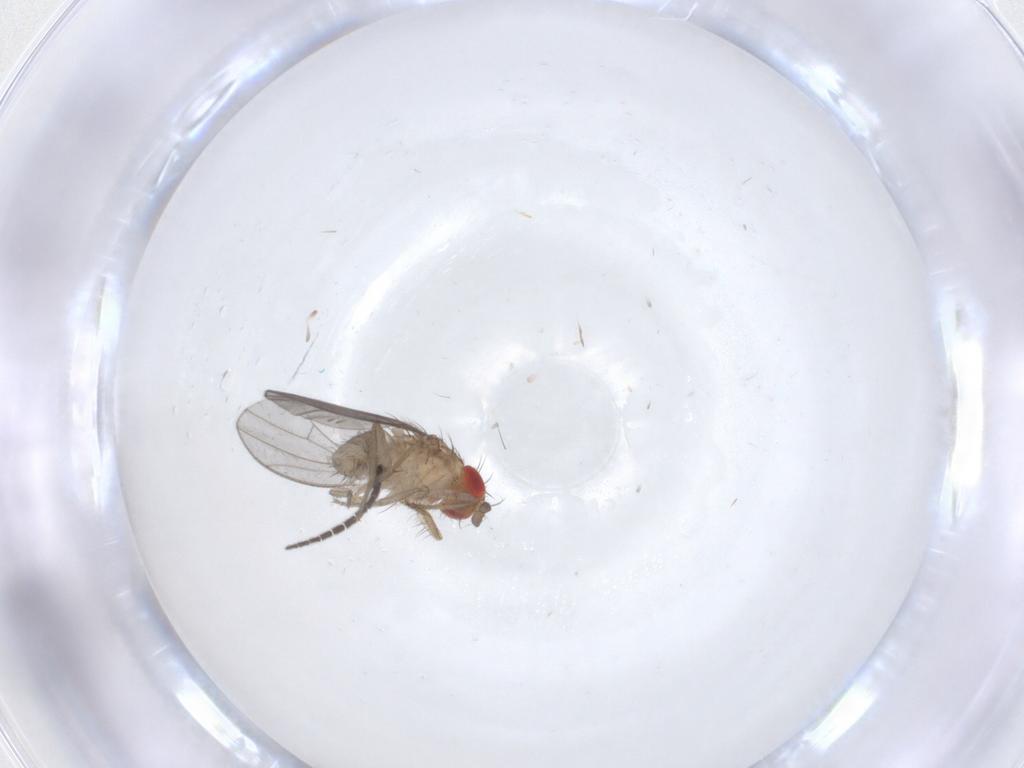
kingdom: Animalia
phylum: Arthropoda
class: Insecta
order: Diptera
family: Drosophilidae
